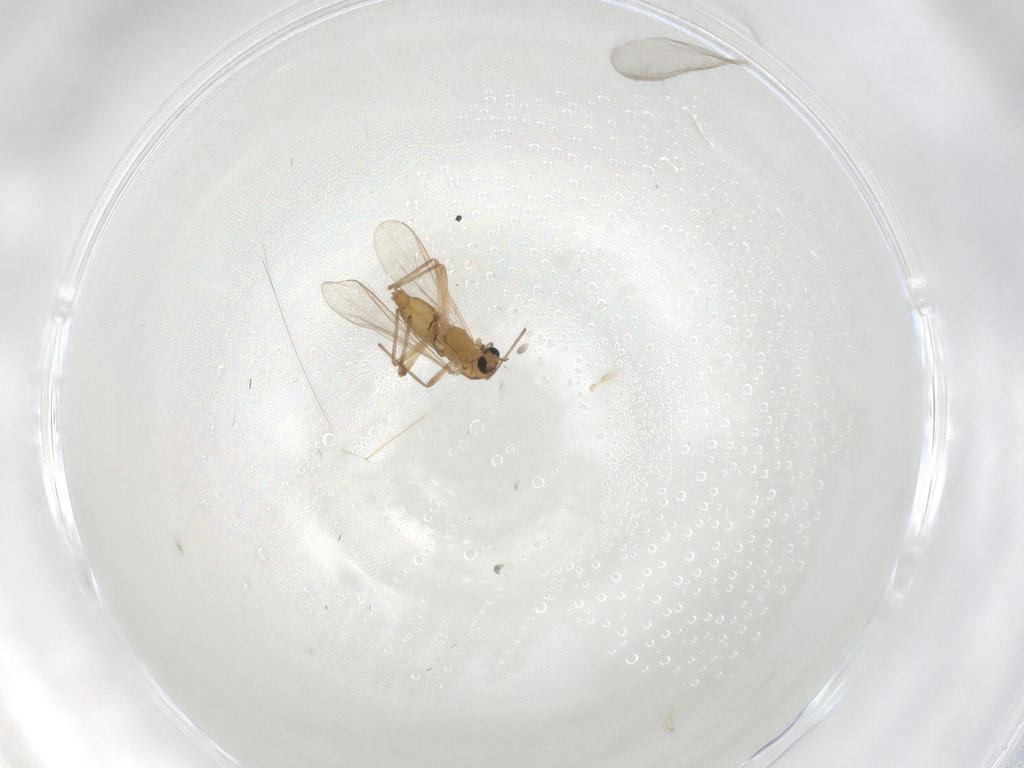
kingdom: Animalia
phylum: Arthropoda
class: Insecta
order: Diptera
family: Chironomidae
